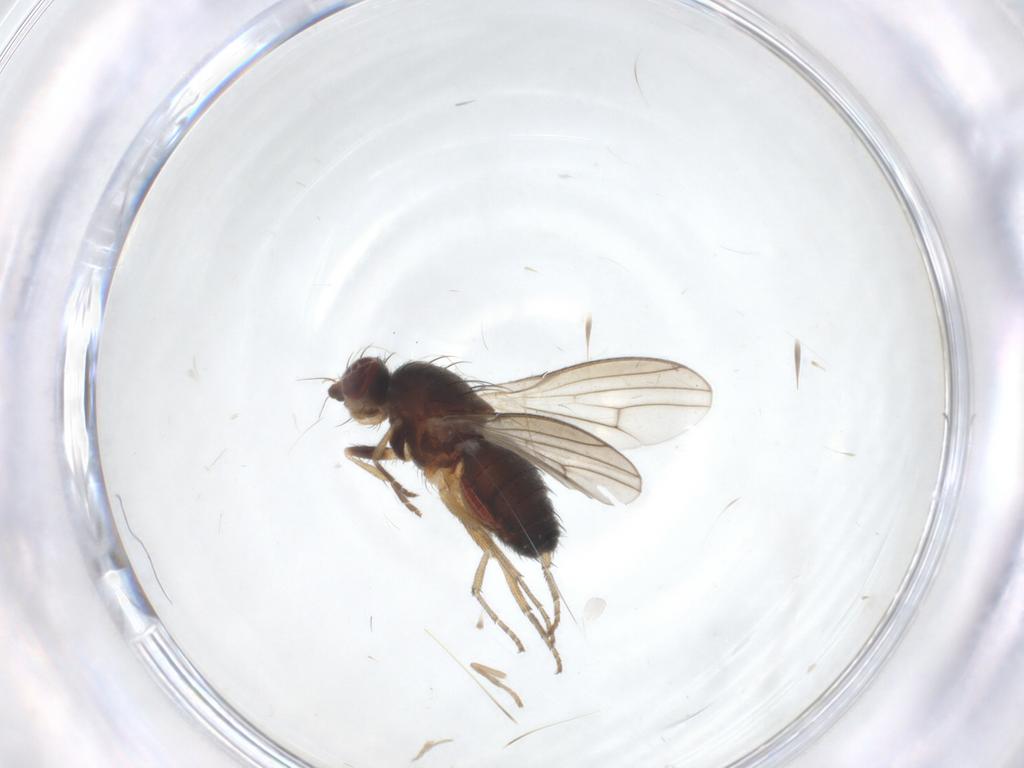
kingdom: Animalia
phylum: Arthropoda
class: Insecta
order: Diptera
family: Heleomyzidae
